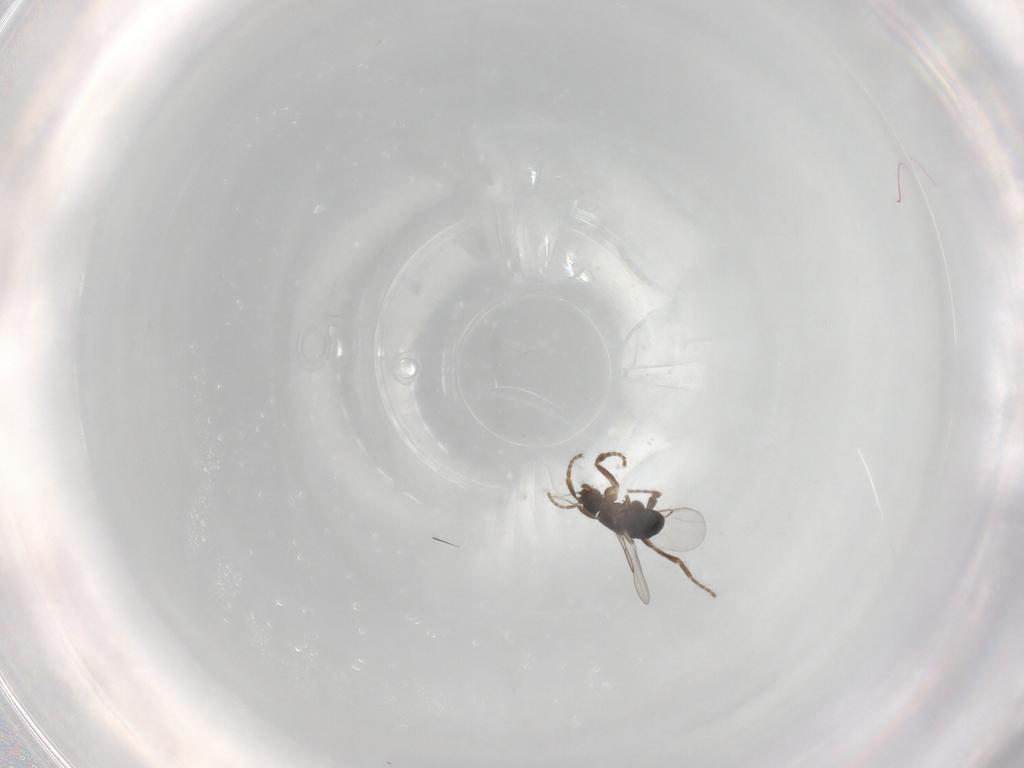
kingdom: Animalia
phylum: Arthropoda
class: Insecta
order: Diptera
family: Phoridae
